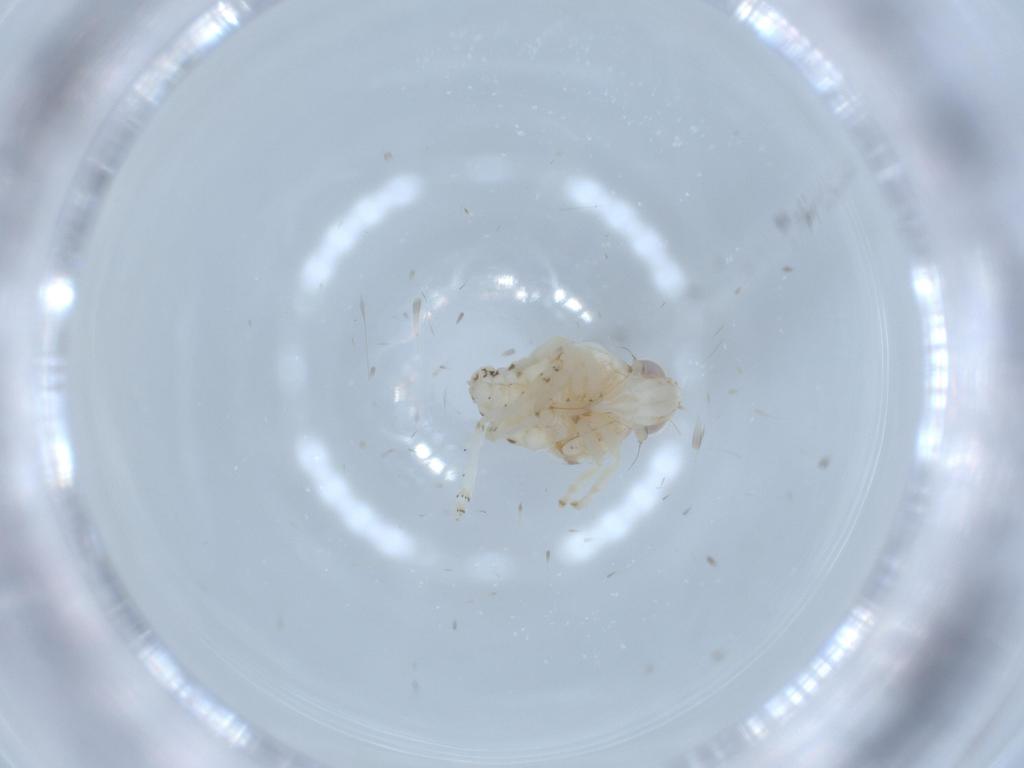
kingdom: Animalia
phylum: Arthropoda
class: Insecta
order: Hemiptera
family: Nogodinidae
